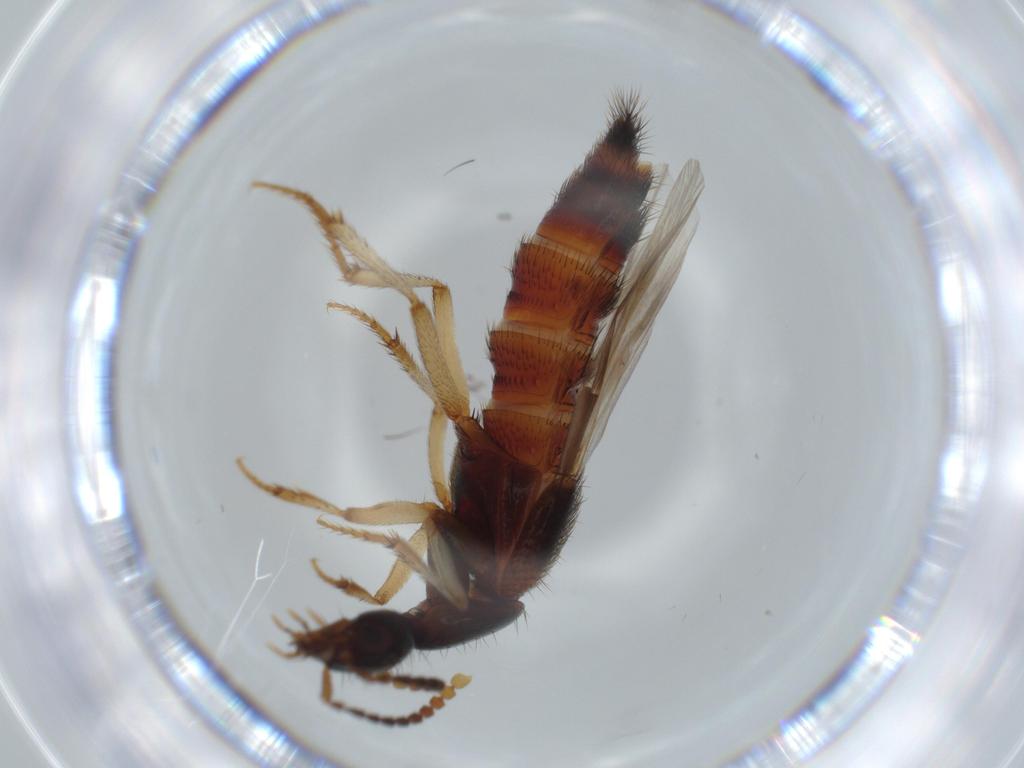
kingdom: Animalia
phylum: Arthropoda
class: Insecta
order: Coleoptera
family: Staphylinidae
